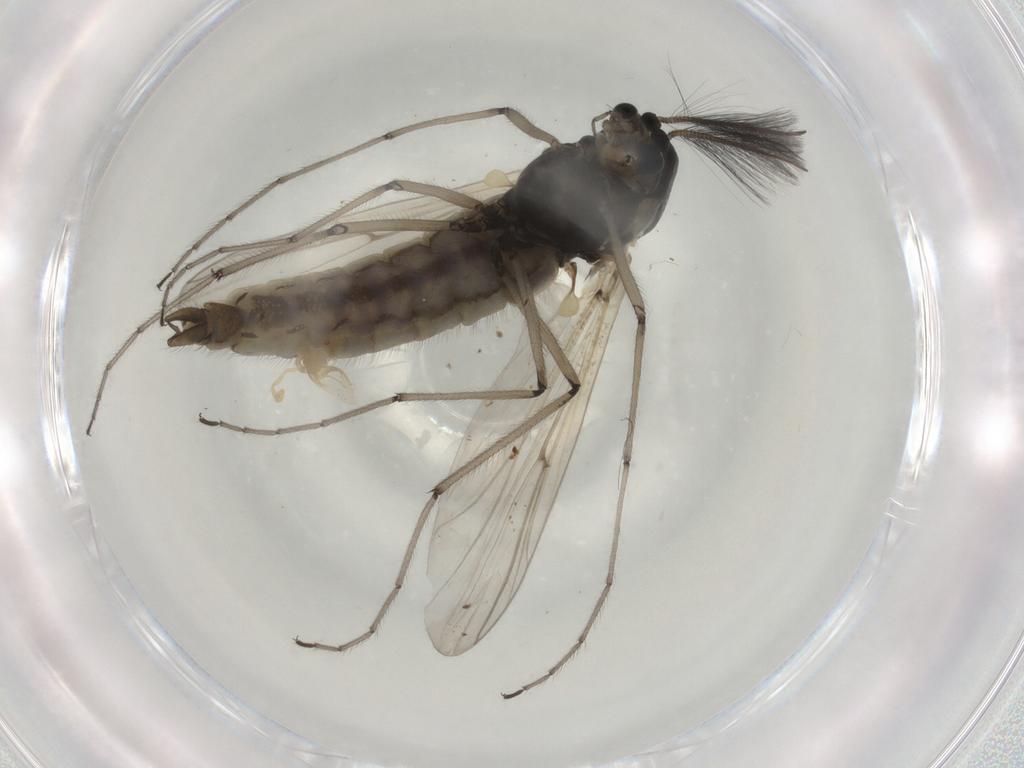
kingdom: Animalia
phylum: Arthropoda
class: Insecta
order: Diptera
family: Chironomidae
